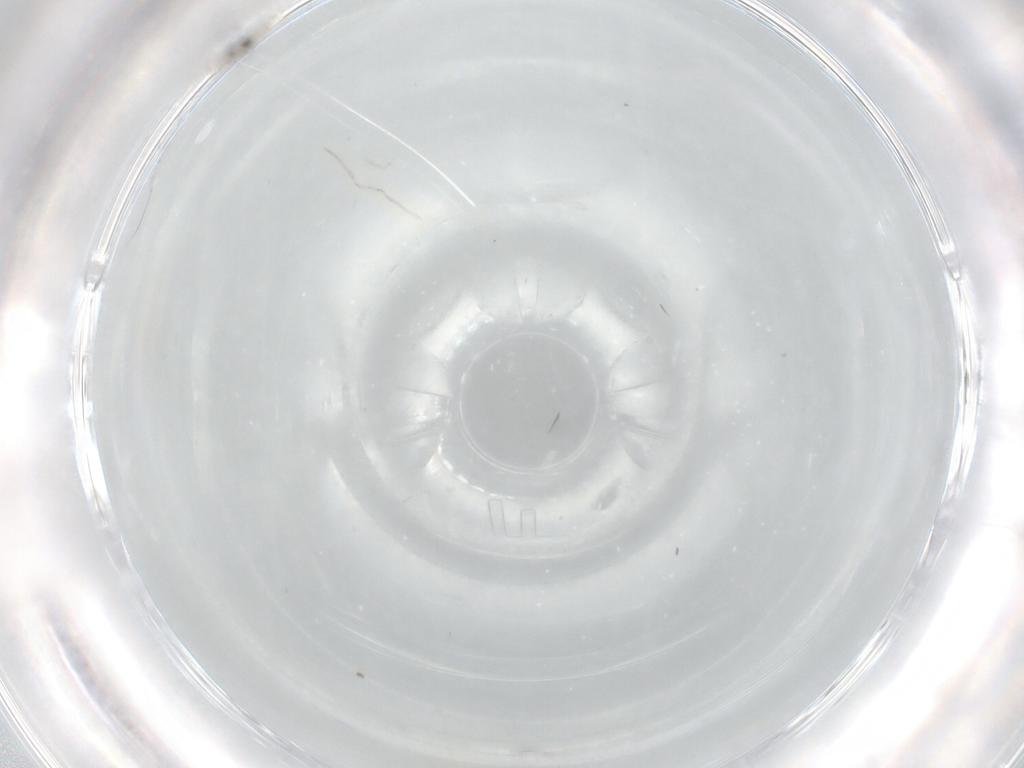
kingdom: Animalia
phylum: Arthropoda
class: Insecta
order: Diptera
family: Cecidomyiidae
